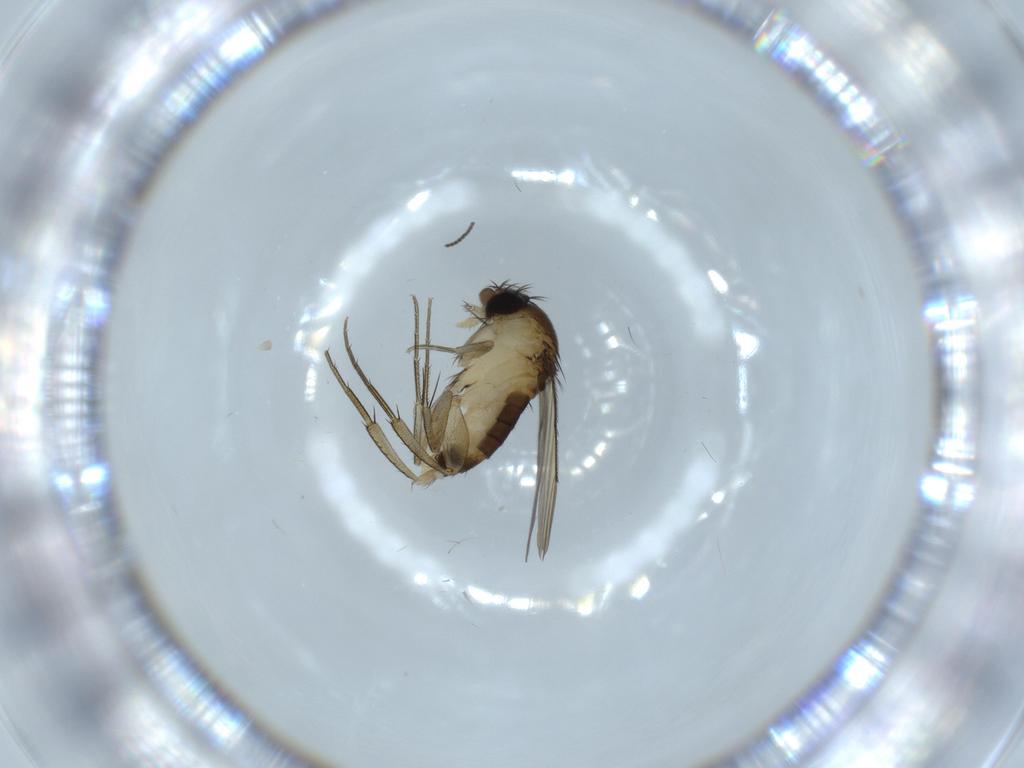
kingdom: Animalia
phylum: Arthropoda
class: Insecta
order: Diptera
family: Sciaridae
